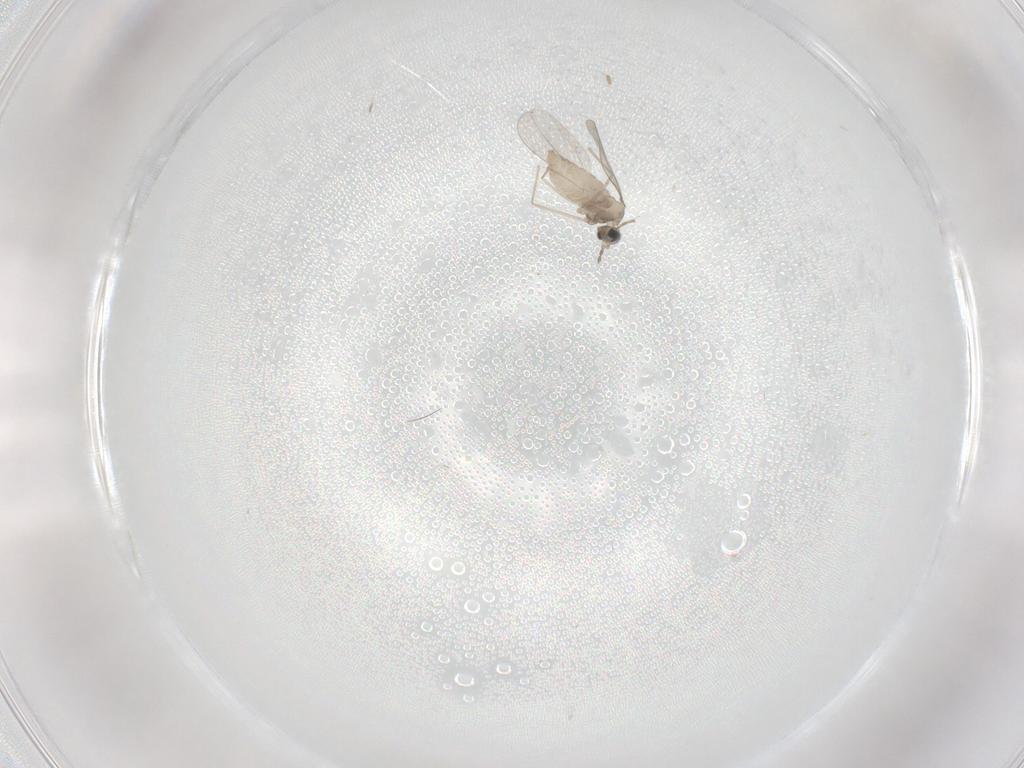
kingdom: Animalia
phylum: Arthropoda
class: Insecta
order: Diptera
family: Cecidomyiidae
